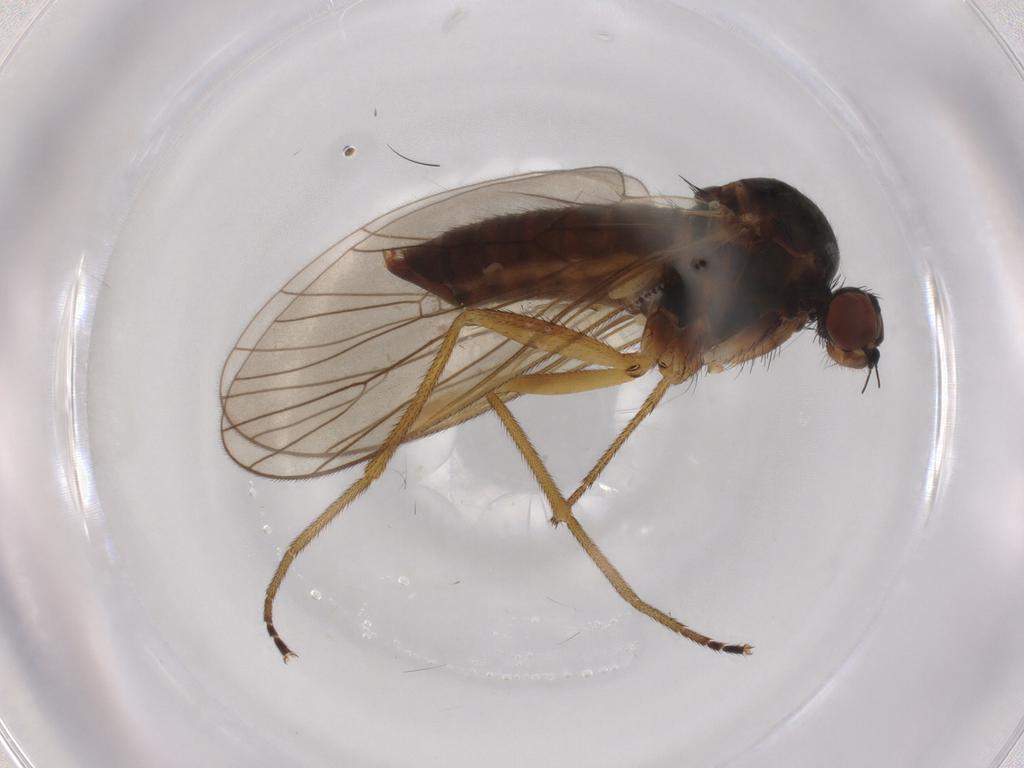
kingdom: Animalia
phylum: Arthropoda
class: Insecta
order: Diptera
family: Brachystomatidae
